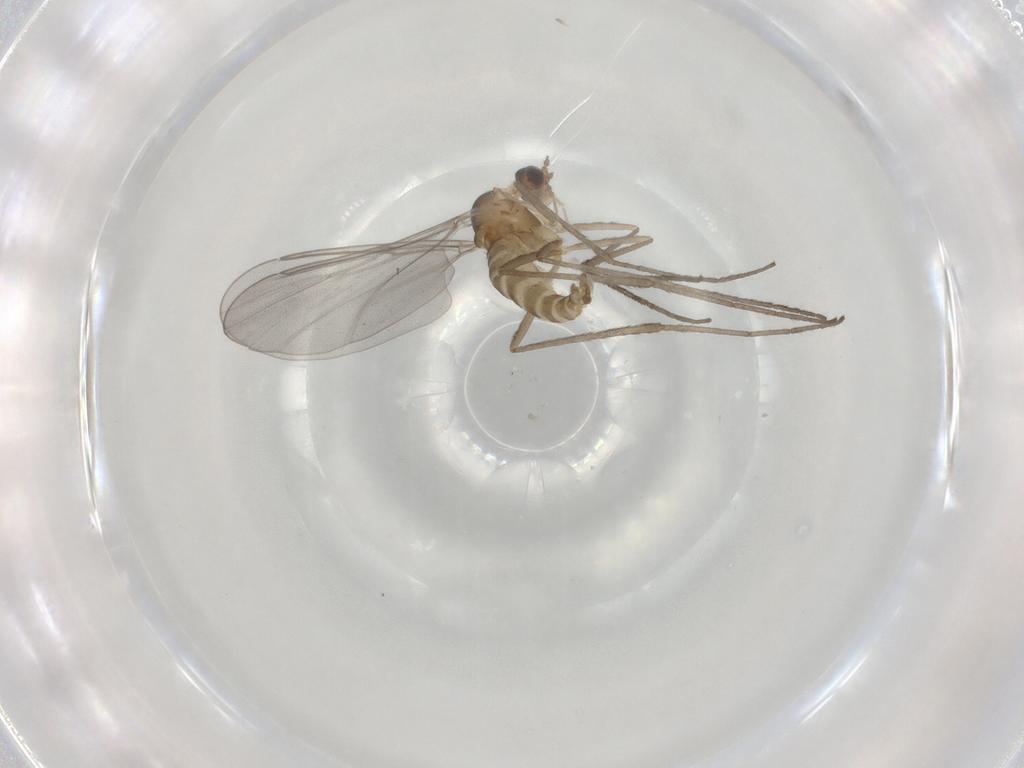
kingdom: Animalia
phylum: Arthropoda
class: Insecta
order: Diptera
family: Cecidomyiidae
